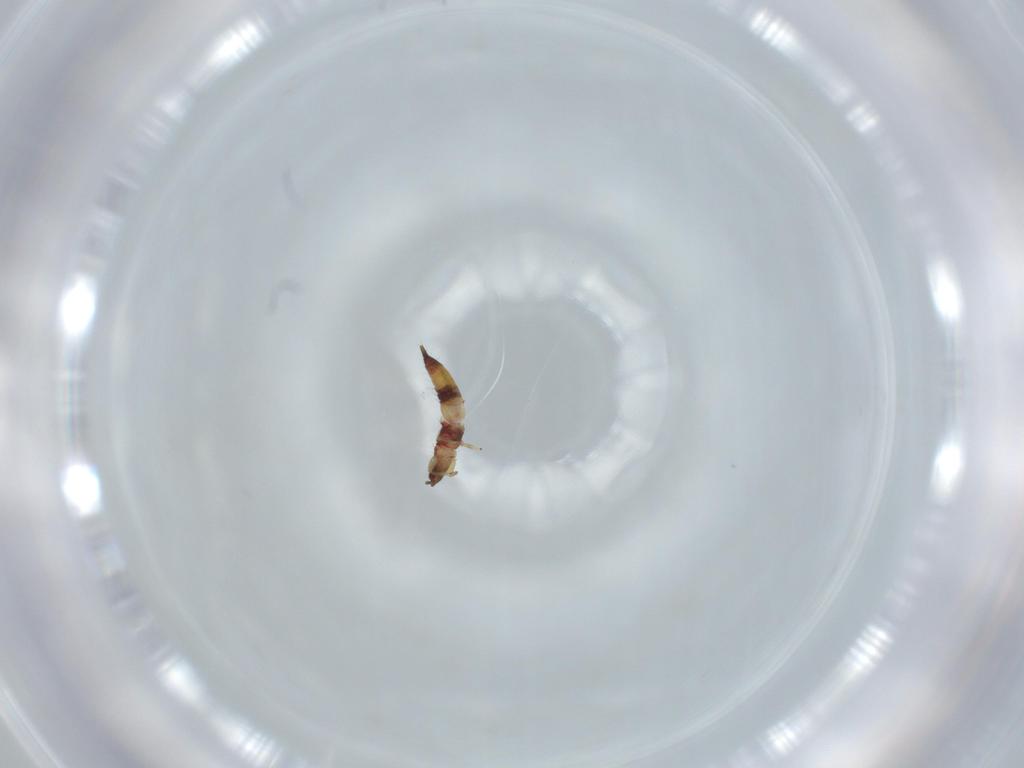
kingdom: Animalia
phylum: Arthropoda
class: Insecta
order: Thysanoptera
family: Phlaeothripidae
